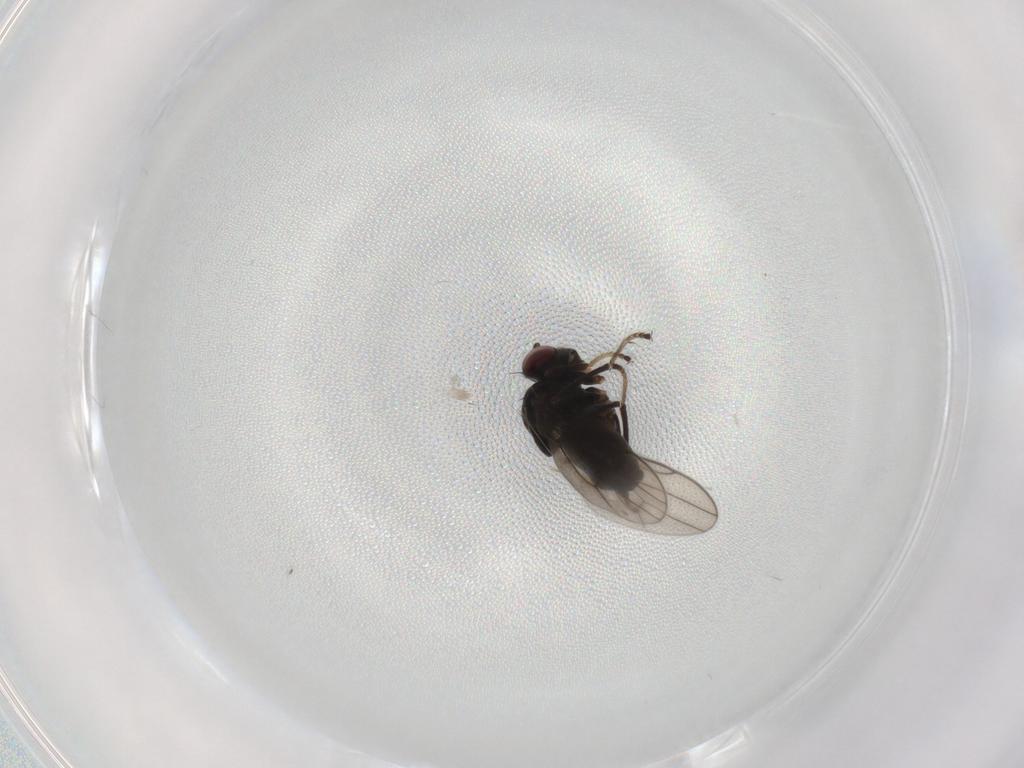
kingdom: Animalia
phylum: Arthropoda
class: Insecta
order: Diptera
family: Ephydridae
